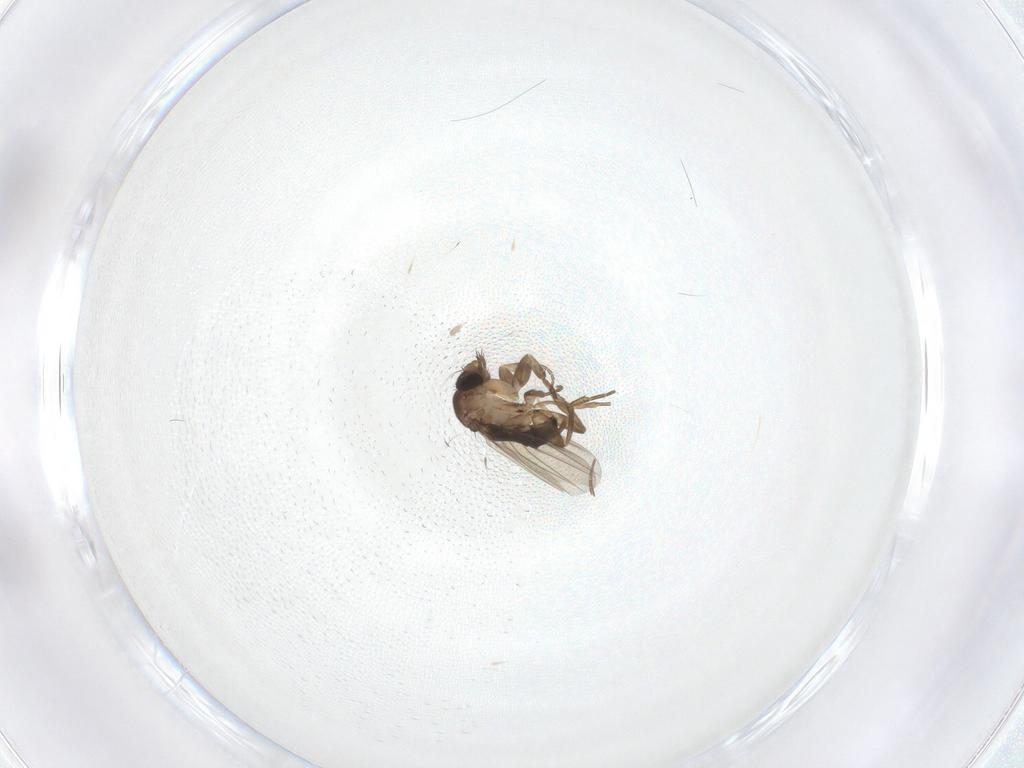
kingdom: Animalia
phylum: Arthropoda
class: Insecta
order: Diptera
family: Phoridae
